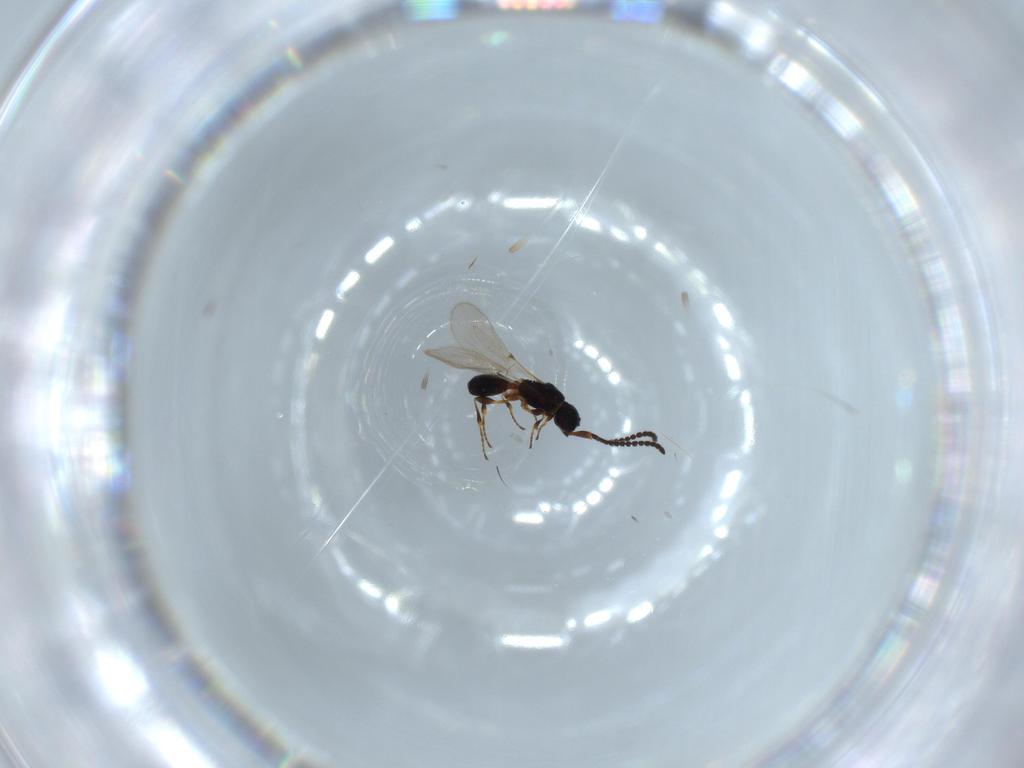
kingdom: Animalia
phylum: Arthropoda
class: Insecta
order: Hymenoptera
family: Diapriidae
